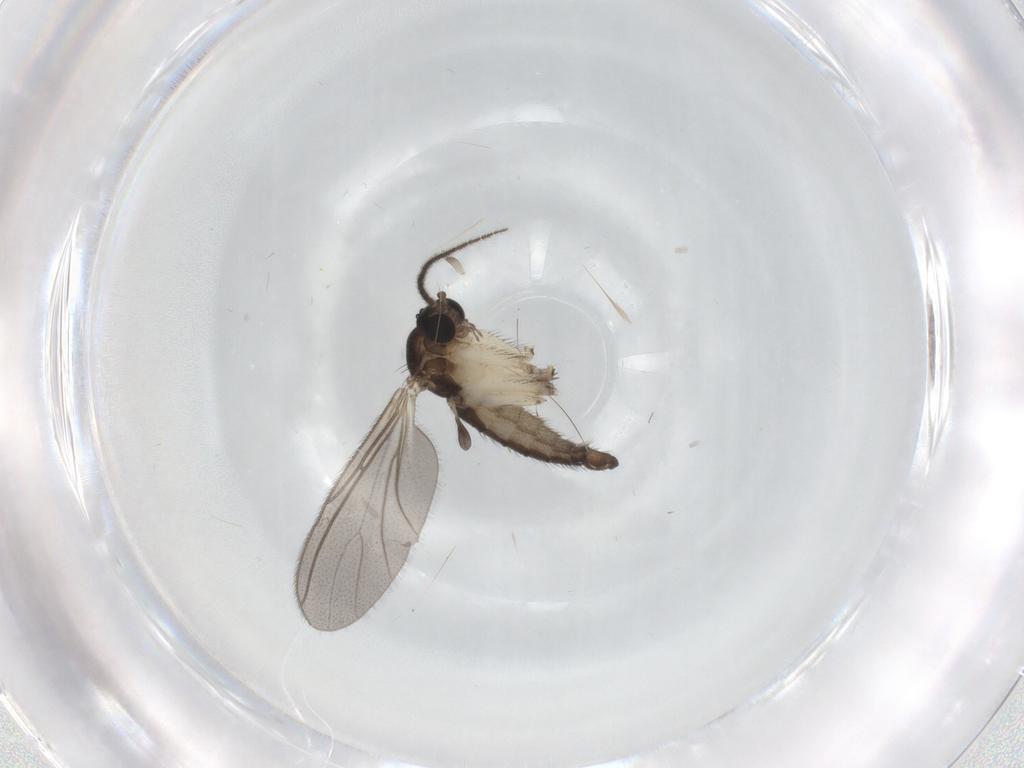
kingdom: Animalia
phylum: Arthropoda
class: Insecta
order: Diptera
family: Sciaridae
